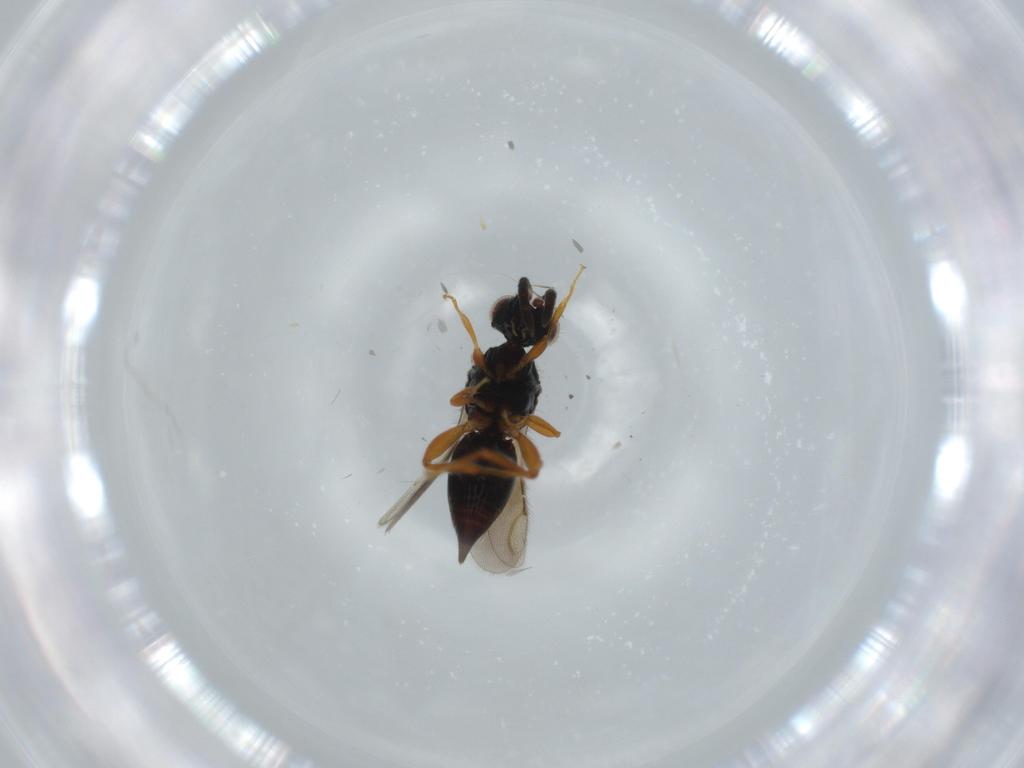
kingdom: Animalia
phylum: Arthropoda
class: Insecta
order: Hymenoptera
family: Ceraphronidae
